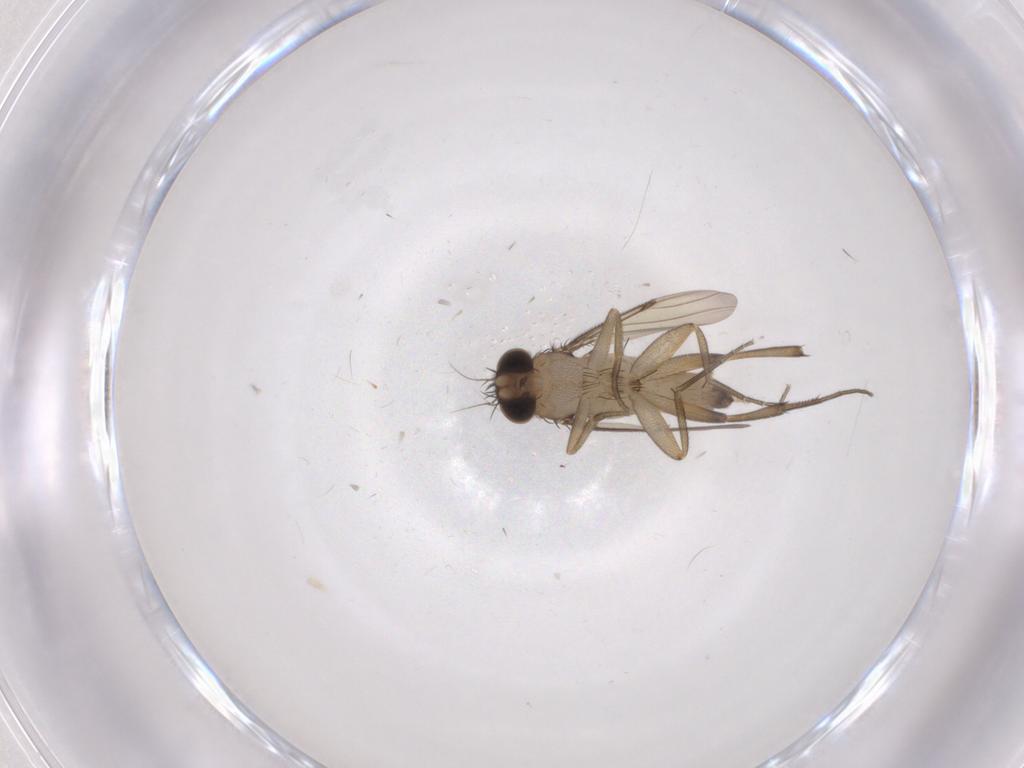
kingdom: Animalia
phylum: Arthropoda
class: Insecta
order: Diptera
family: Phoridae
